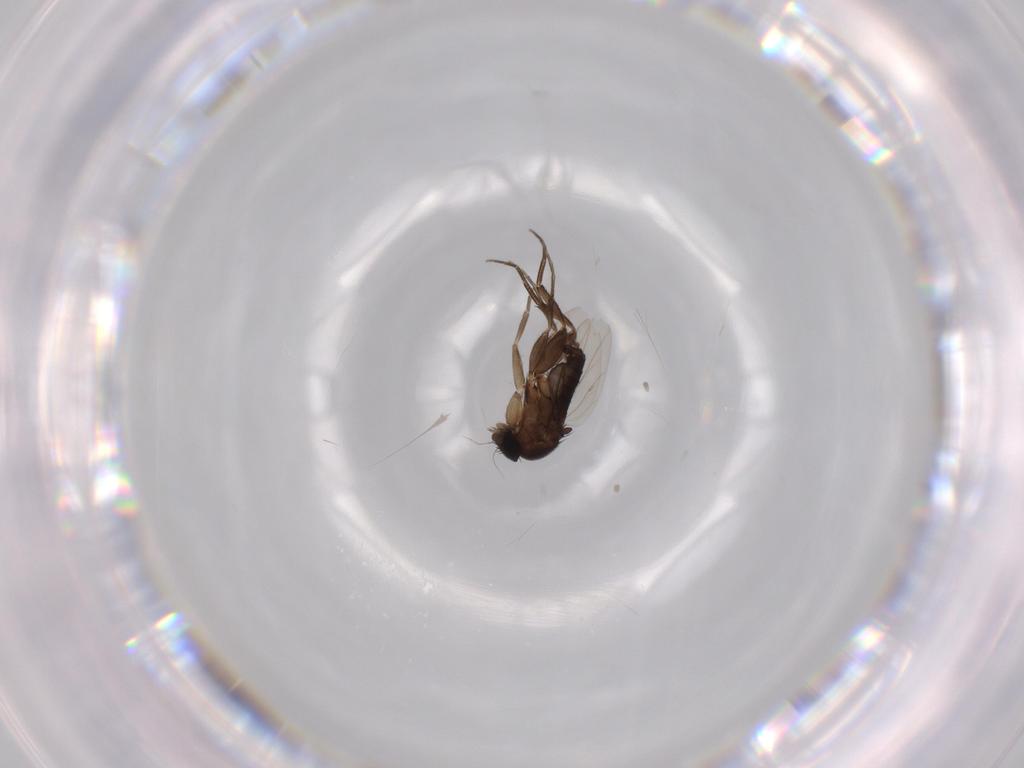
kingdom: Animalia
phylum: Arthropoda
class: Insecta
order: Diptera
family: Phoridae
